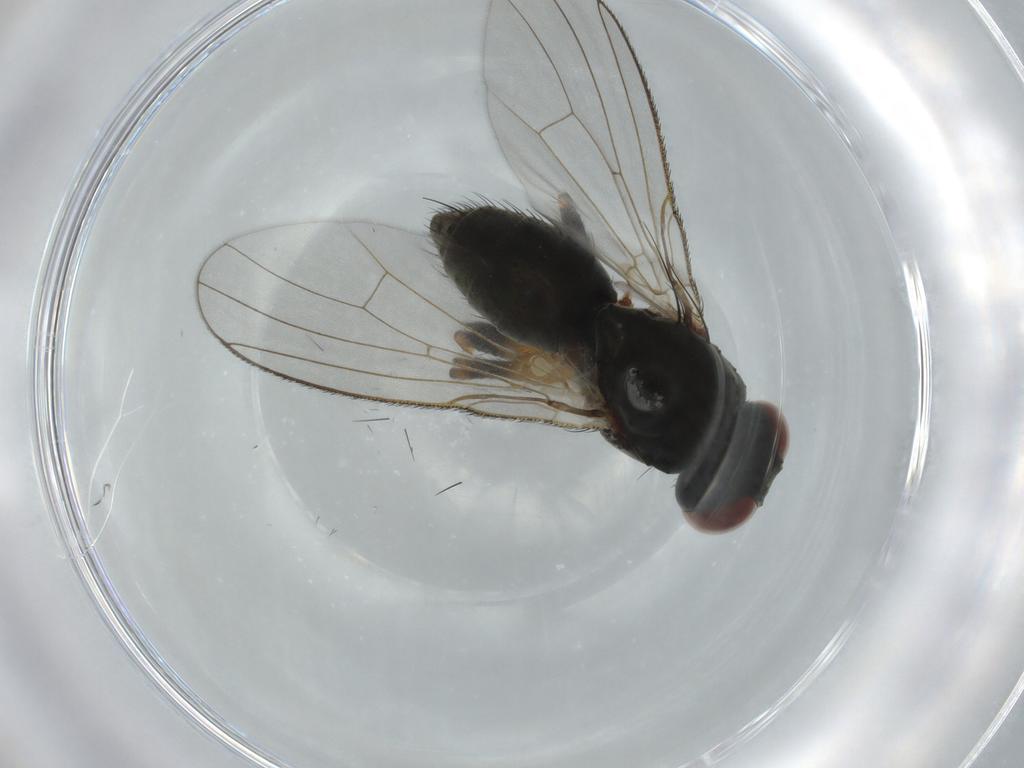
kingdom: Animalia
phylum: Arthropoda
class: Insecta
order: Diptera
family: Muscidae
